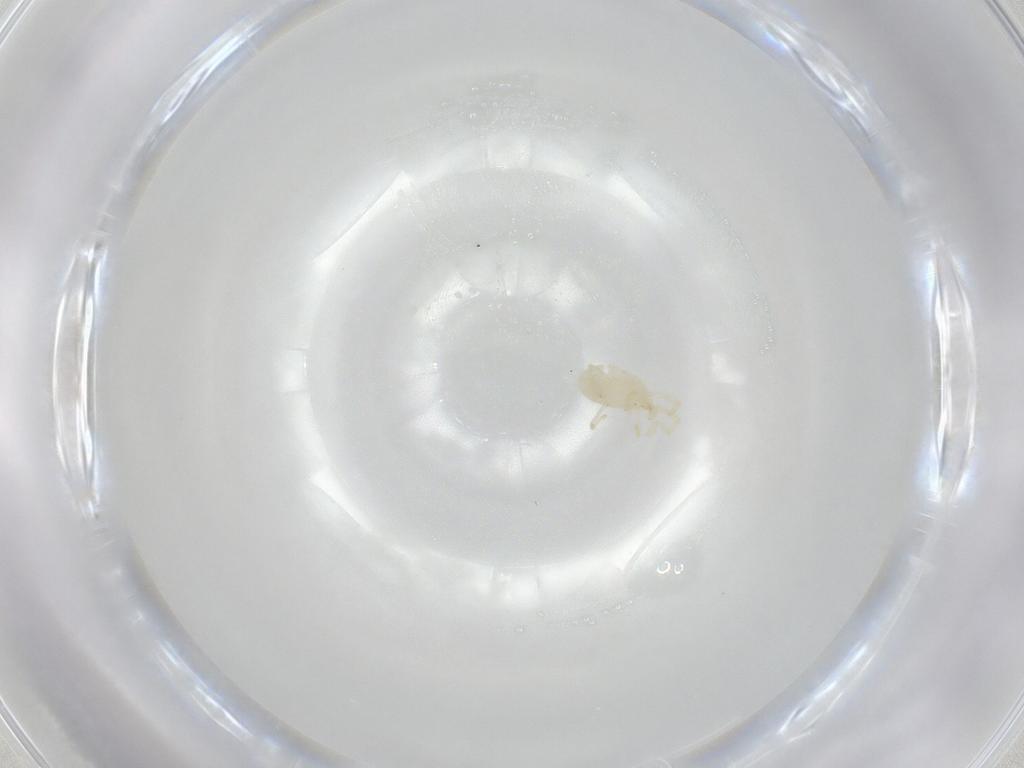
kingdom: Animalia
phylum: Arthropoda
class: Arachnida
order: Trombidiformes
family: Erythraeidae
